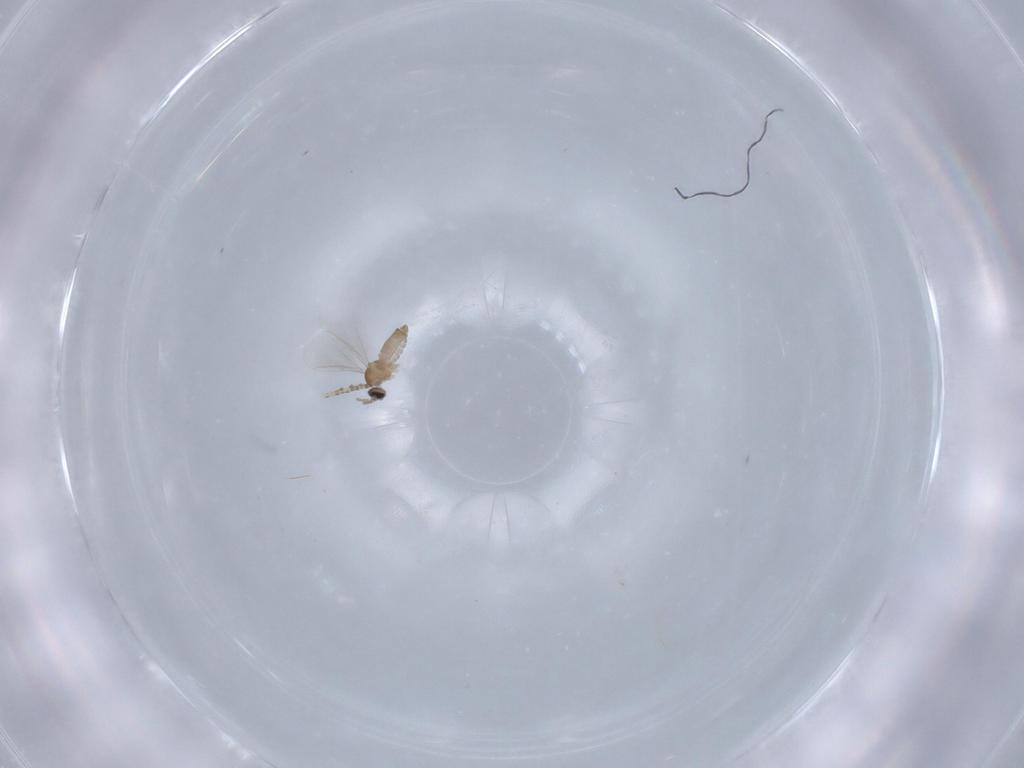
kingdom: Animalia
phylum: Arthropoda
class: Insecta
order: Diptera
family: Cecidomyiidae
